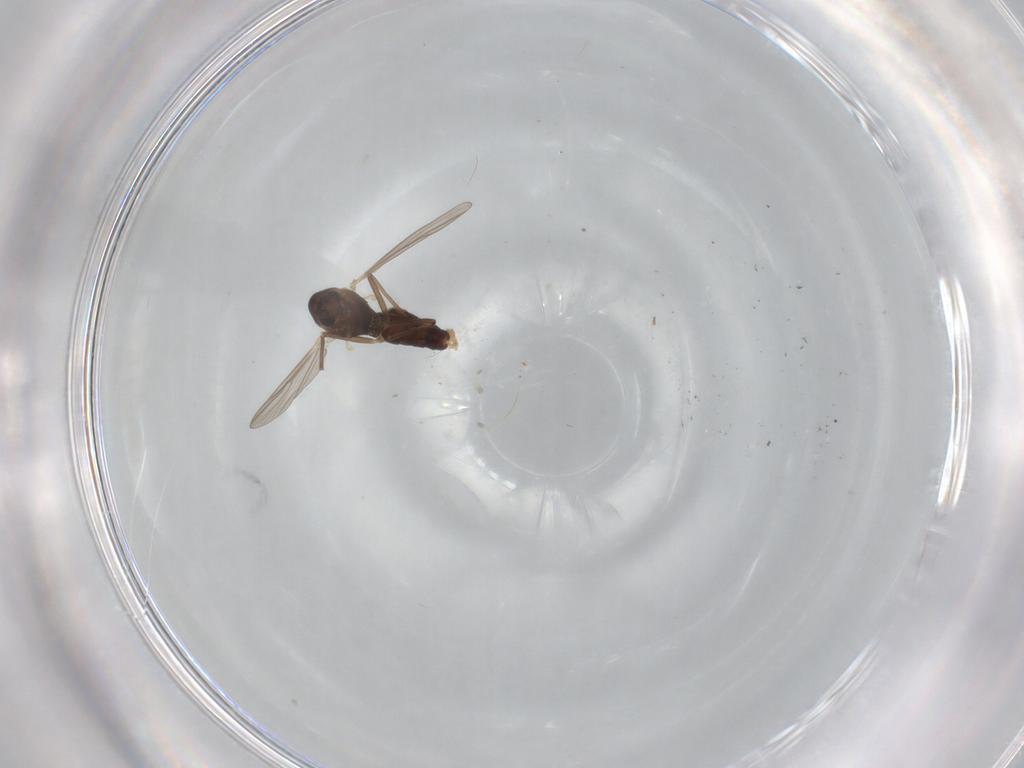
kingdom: Animalia
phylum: Arthropoda
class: Insecta
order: Diptera
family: Chironomidae
